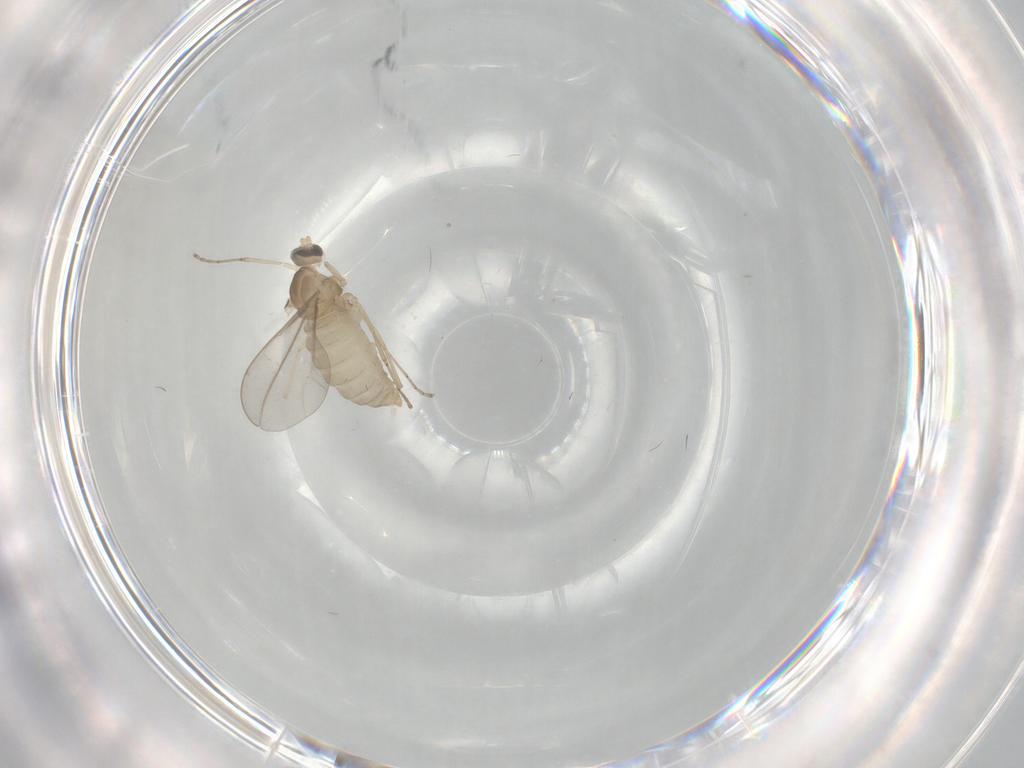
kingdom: Animalia
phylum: Arthropoda
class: Insecta
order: Diptera
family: Cecidomyiidae
